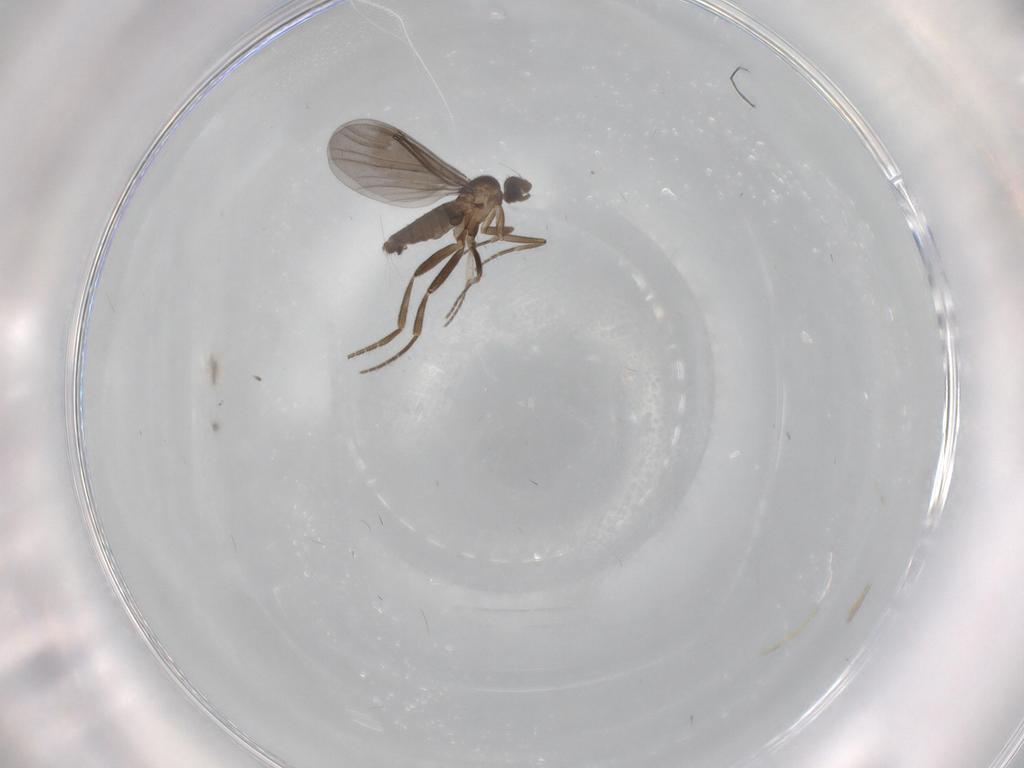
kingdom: Animalia
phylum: Arthropoda
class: Insecta
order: Diptera
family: Phoridae
